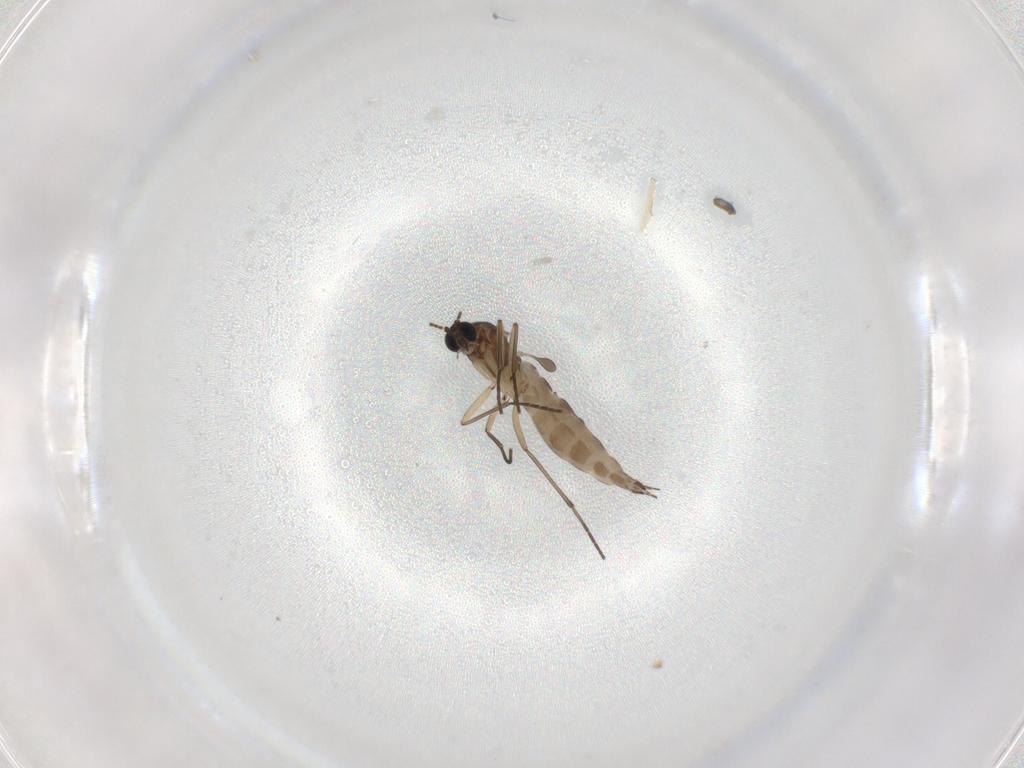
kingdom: Animalia
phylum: Arthropoda
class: Insecta
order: Diptera
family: Sciaridae
